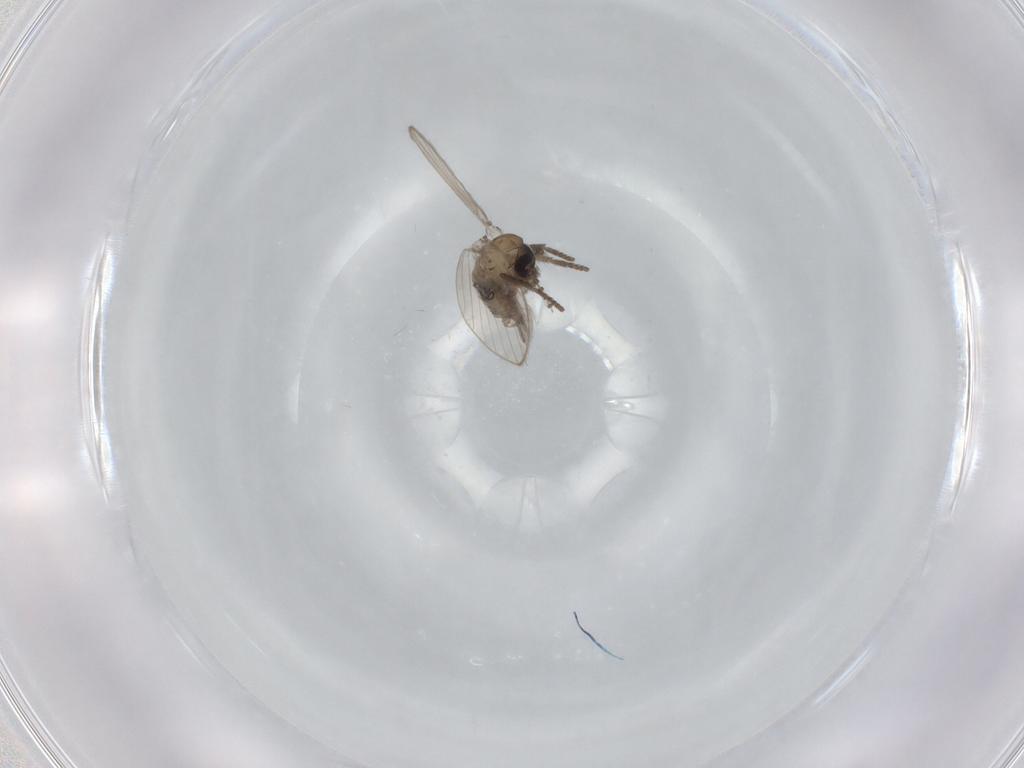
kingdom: Animalia
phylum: Arthropoda
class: Insecta
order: Diptera
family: Psychodidae
